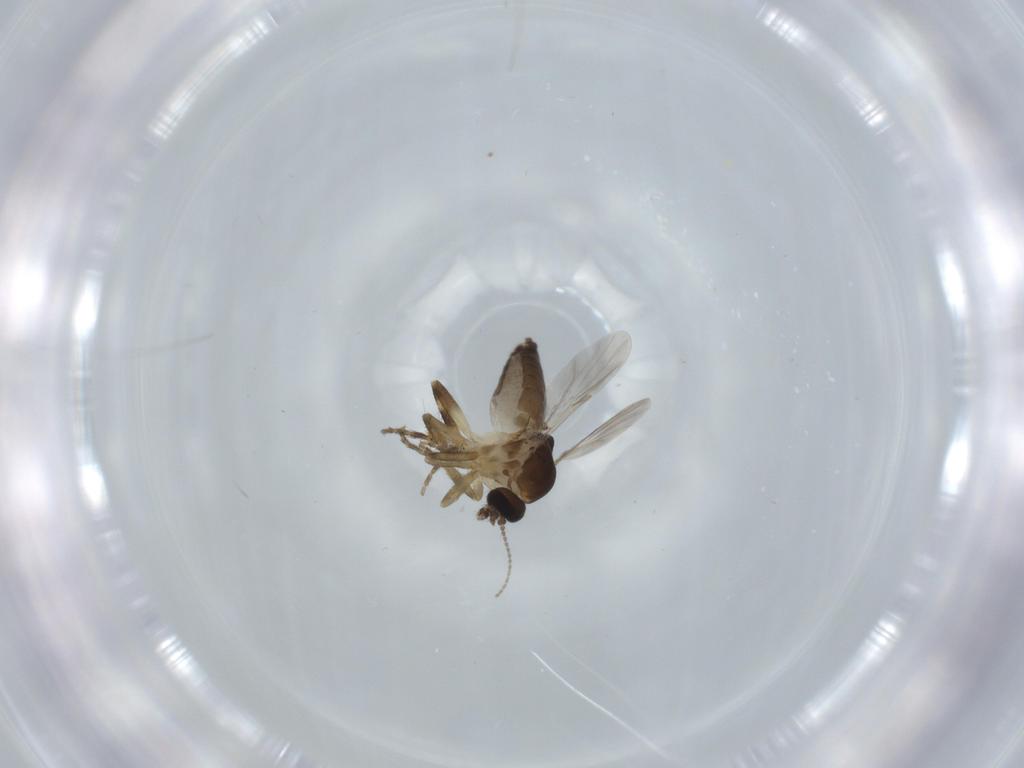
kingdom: Animalia
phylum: Arthropoda
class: Insecta
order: Diptera
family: Ceratopogonidae
